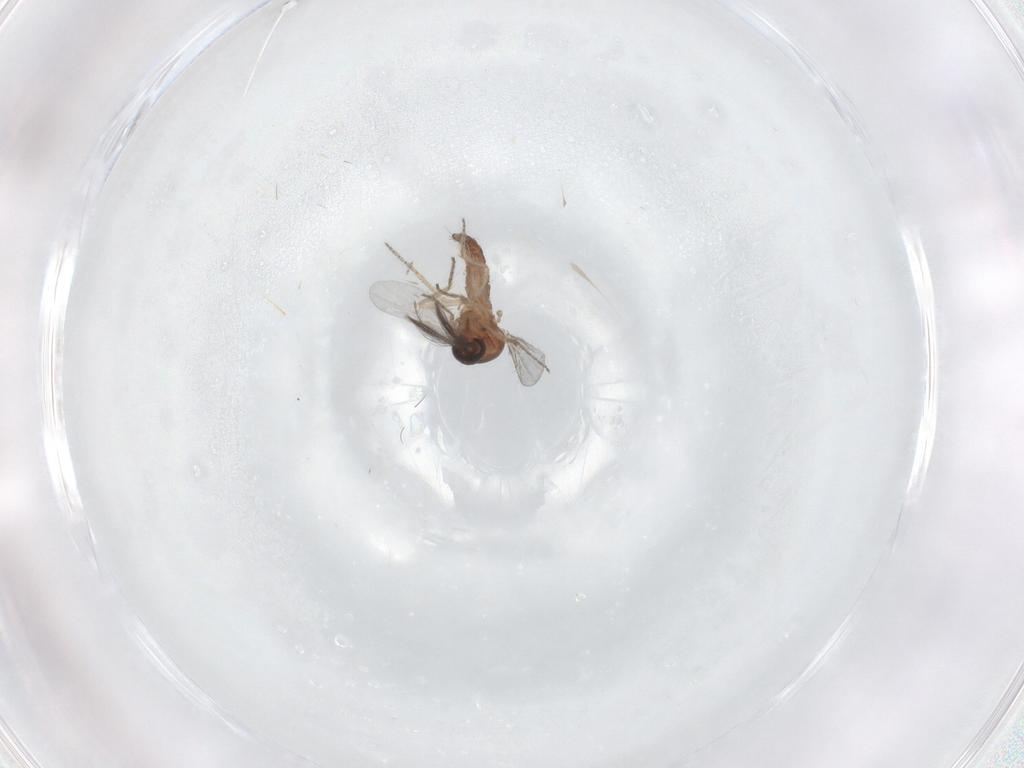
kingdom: Animalia
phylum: Arthropoda
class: Insecta
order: Diptera
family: Ceratopogonidae
